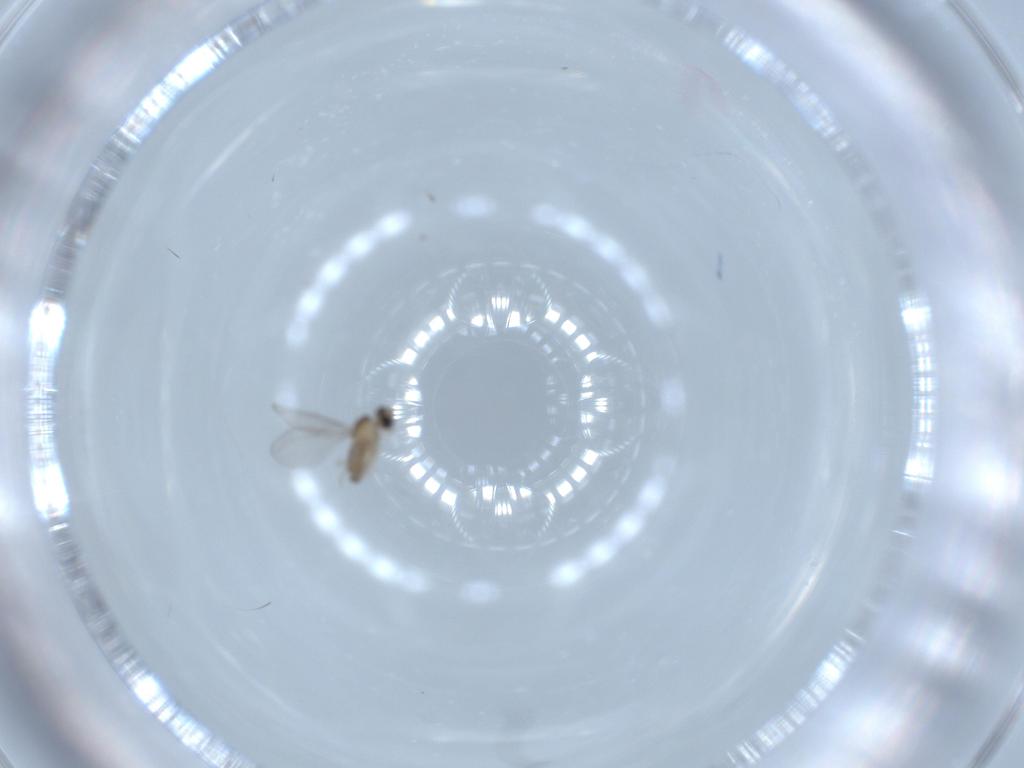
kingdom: Animalia
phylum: Arthropoda
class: Insecta
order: Diptera
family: Cecidomyiidae
